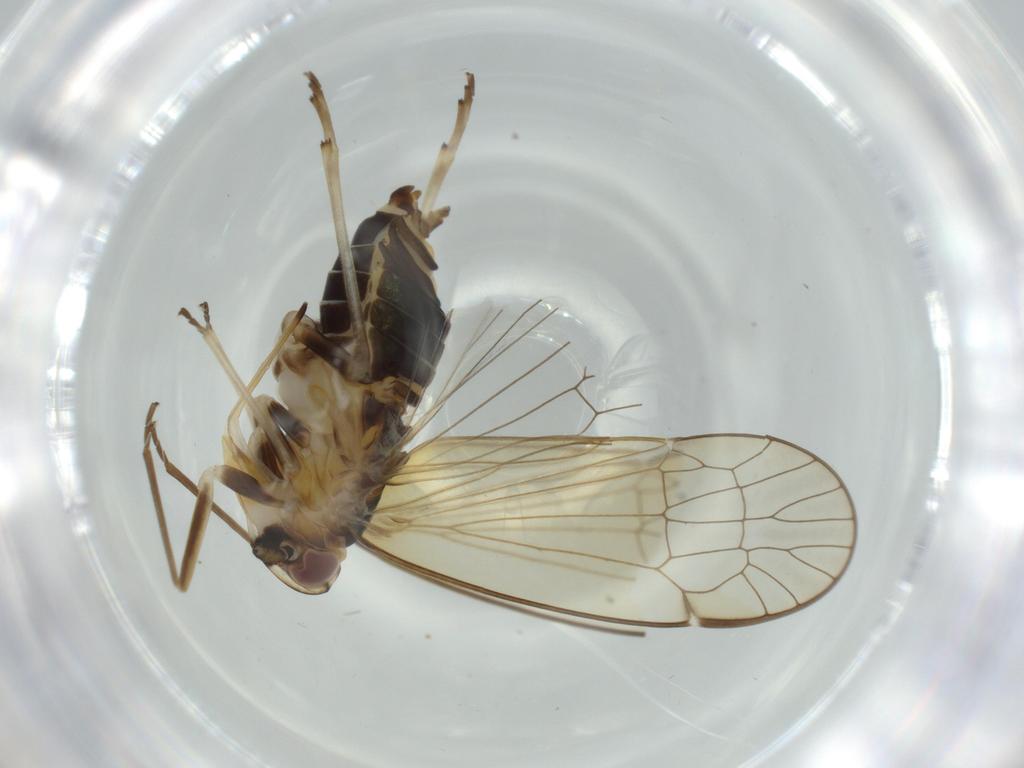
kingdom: Animalia
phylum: Arthropoda
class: Insecta
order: Hemiptera
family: Kinnaridae
